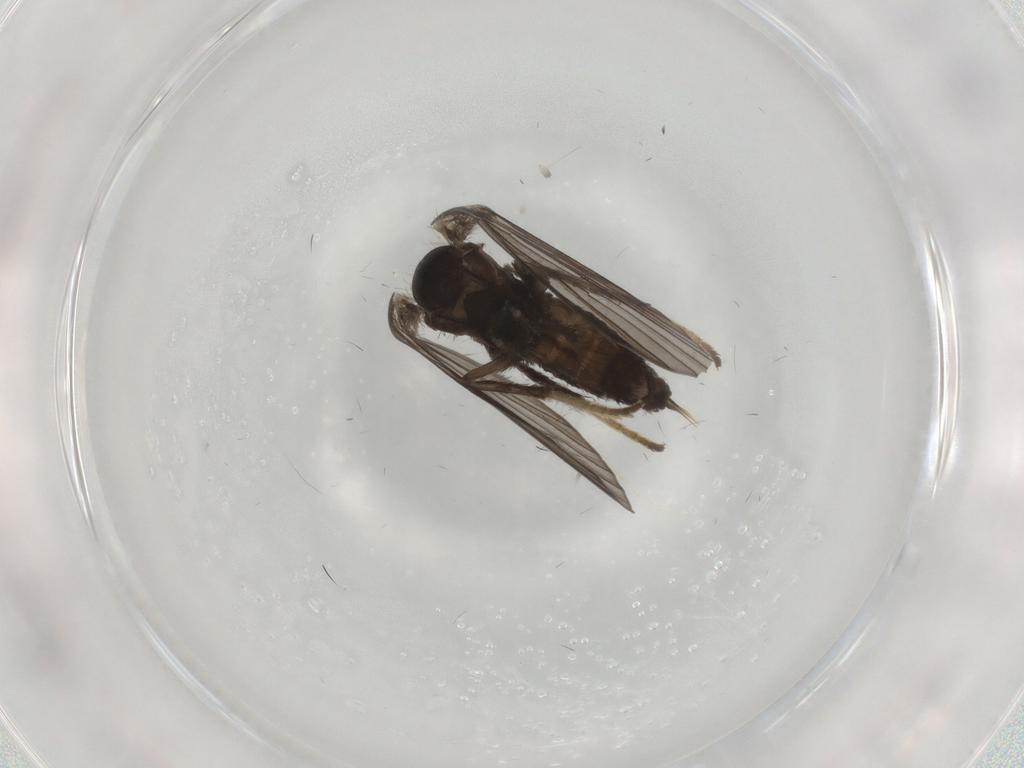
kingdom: Animalia
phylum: Arthropoda
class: Insecta
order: Diptera
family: Psychodidae
